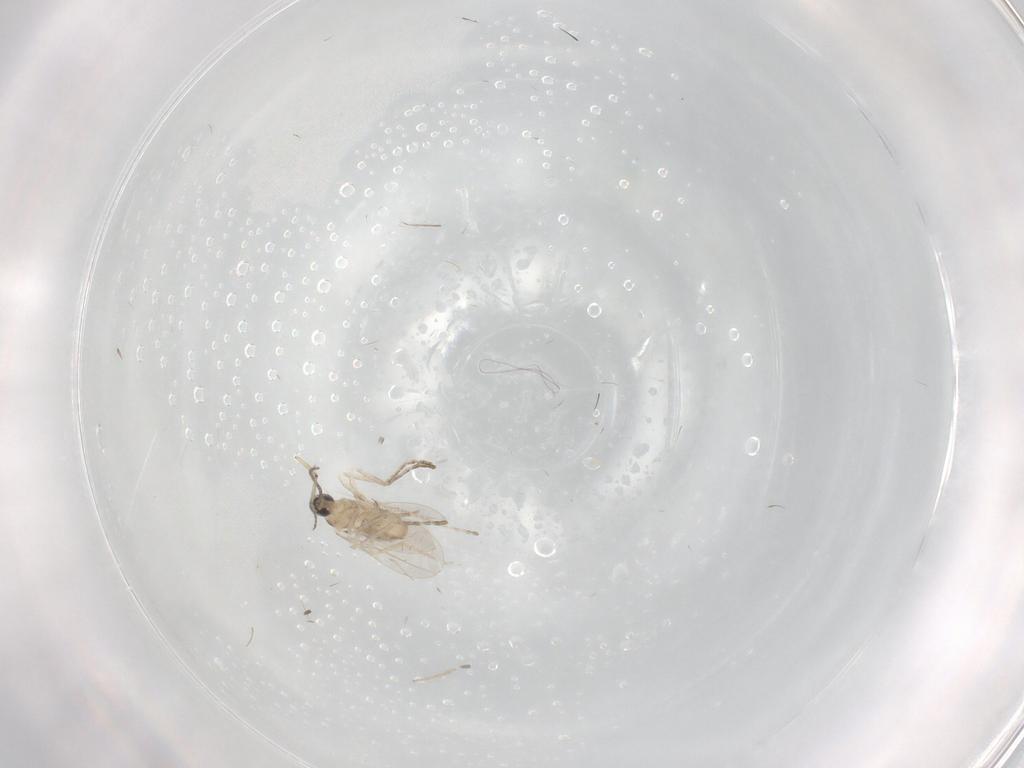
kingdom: Animalia
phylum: Arthropoda
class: Insecta
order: Diptera
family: Ceratopogonidae
